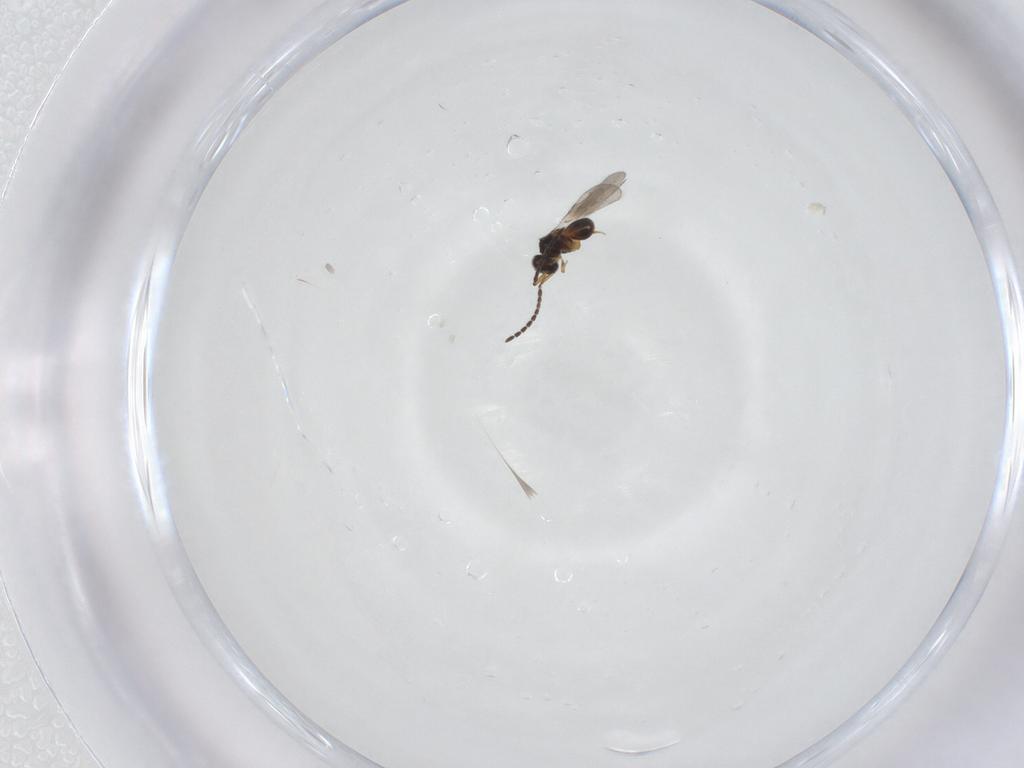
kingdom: Animalia
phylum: Arthropoda
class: Insecta
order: Hymenoptera
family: Ceraphronidae
